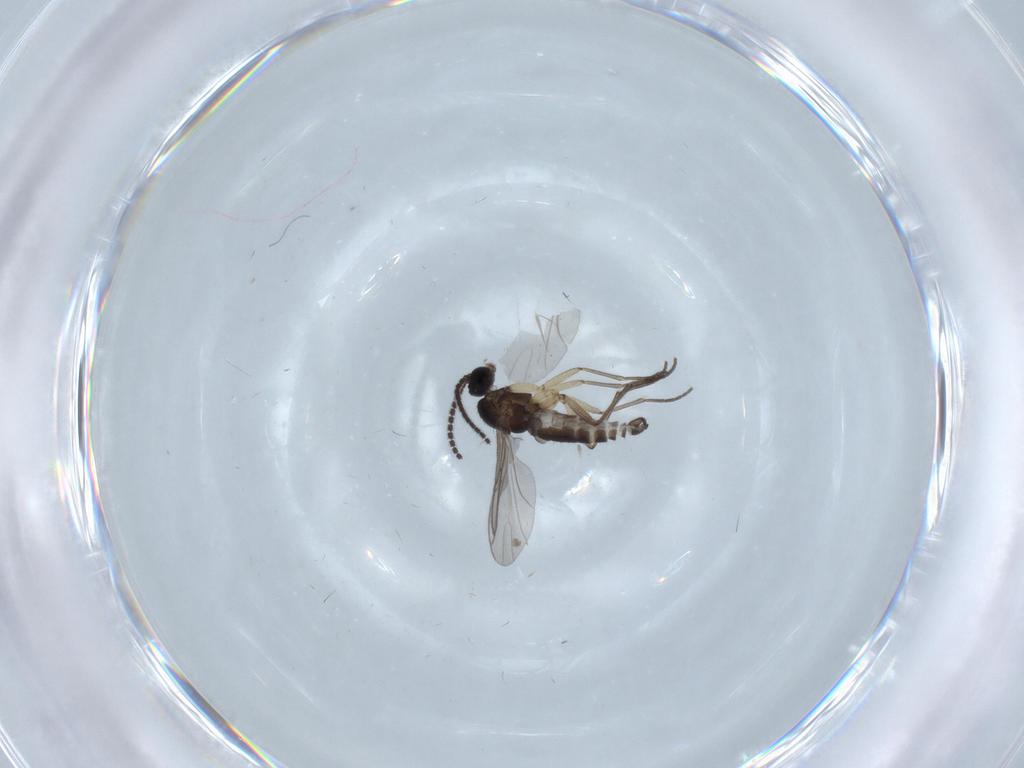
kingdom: Animalia
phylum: Arthropoda
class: Insecta
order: Diptera
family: Sciaridae
